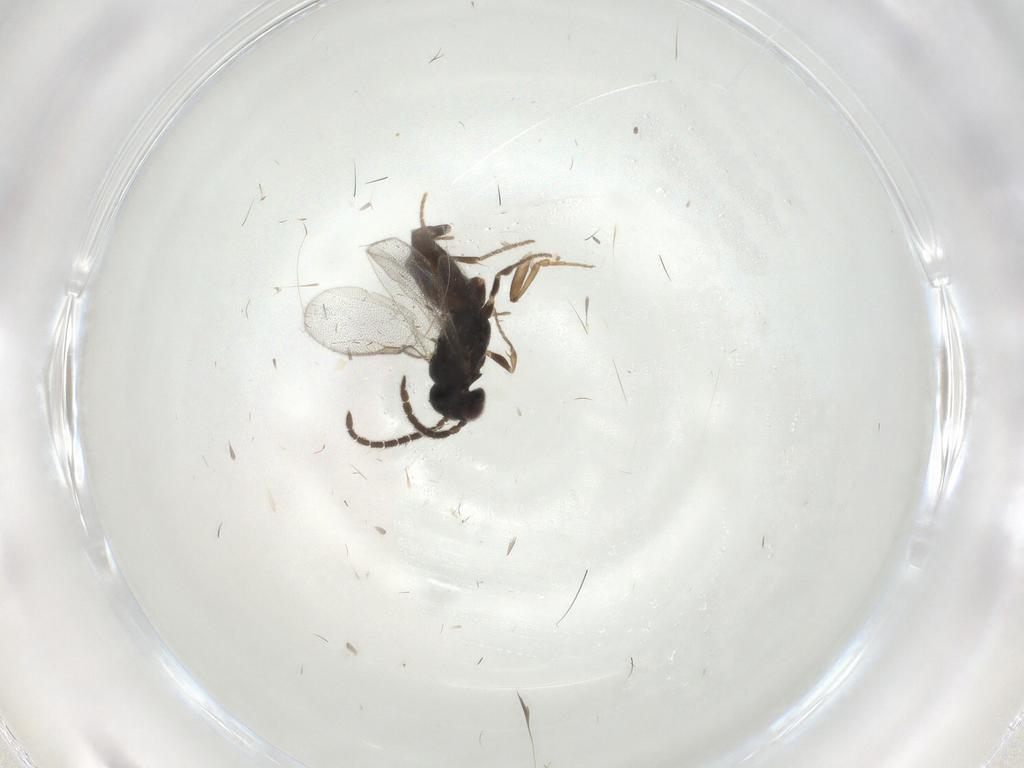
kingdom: Animalia
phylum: Arthropoda
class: Insecta
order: Hymenoptera
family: Dryinidae
